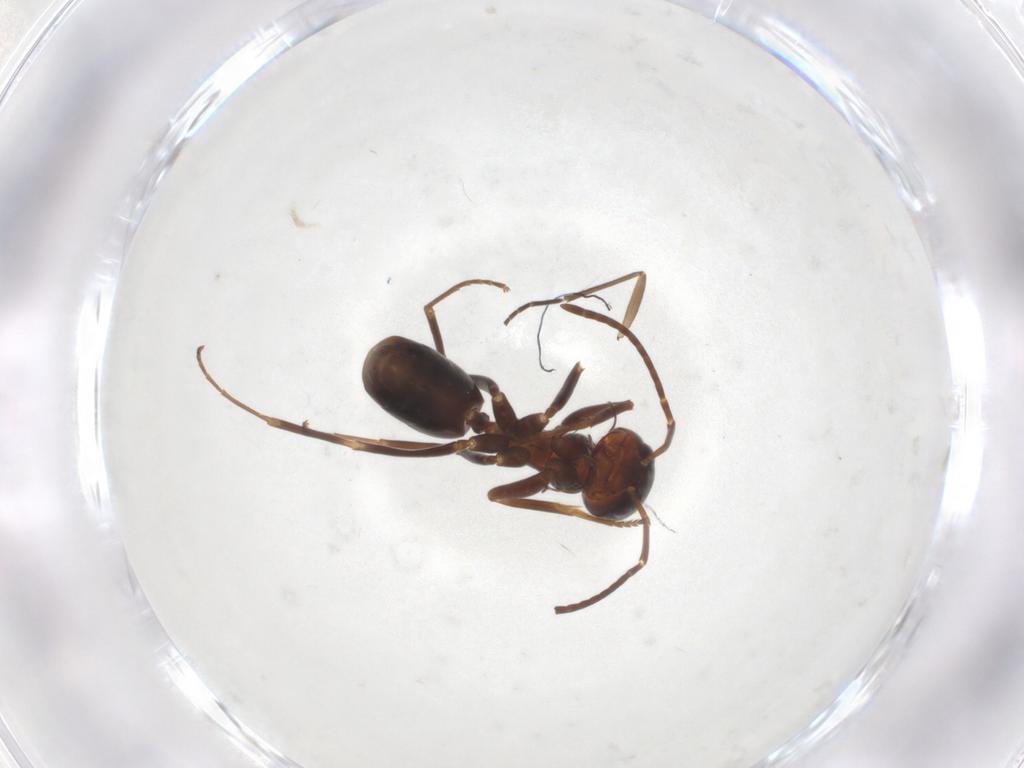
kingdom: Animalia
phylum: Arthropoda
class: Insecta
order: Hymenoptera
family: Formicidae
